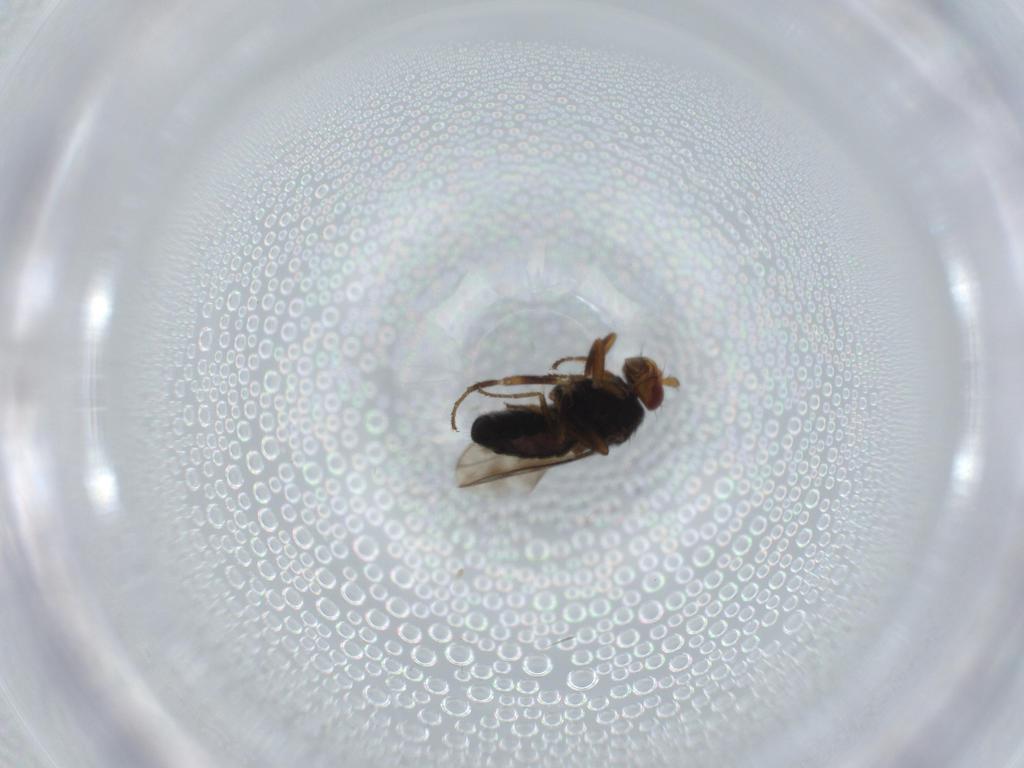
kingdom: Animalia
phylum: Arthropoda
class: Insecta
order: Diptera
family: Sphaeroceridae
